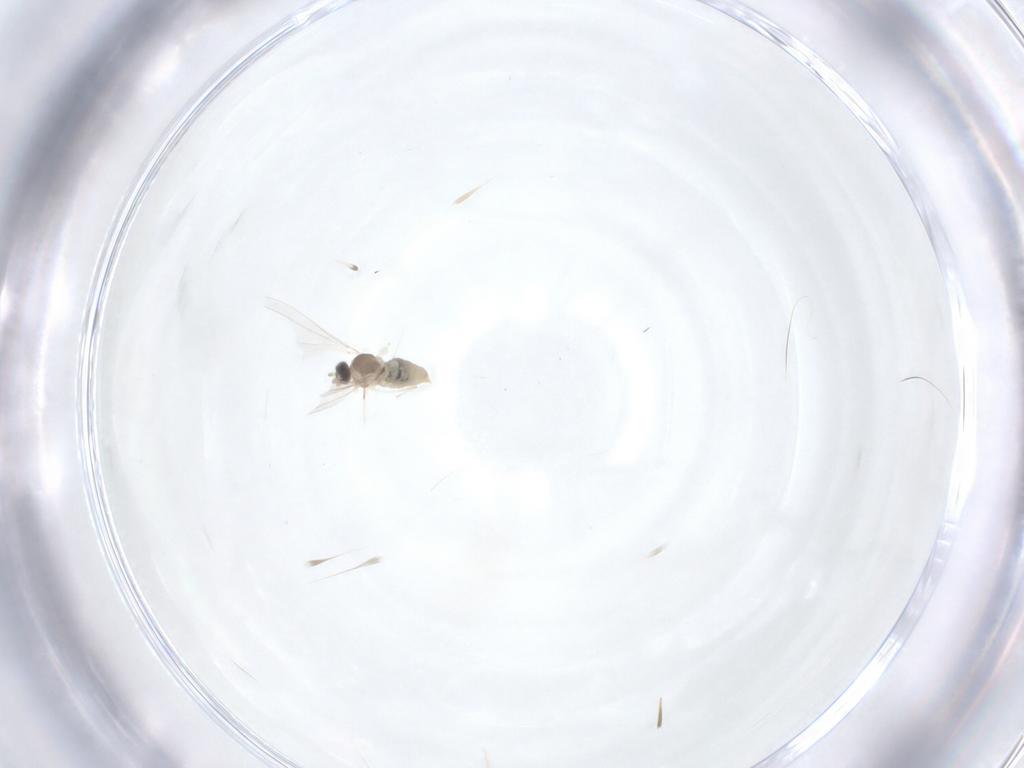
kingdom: Animalia
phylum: Arthropoda
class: Insecta
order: Diptera
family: Cecidomyiidae
